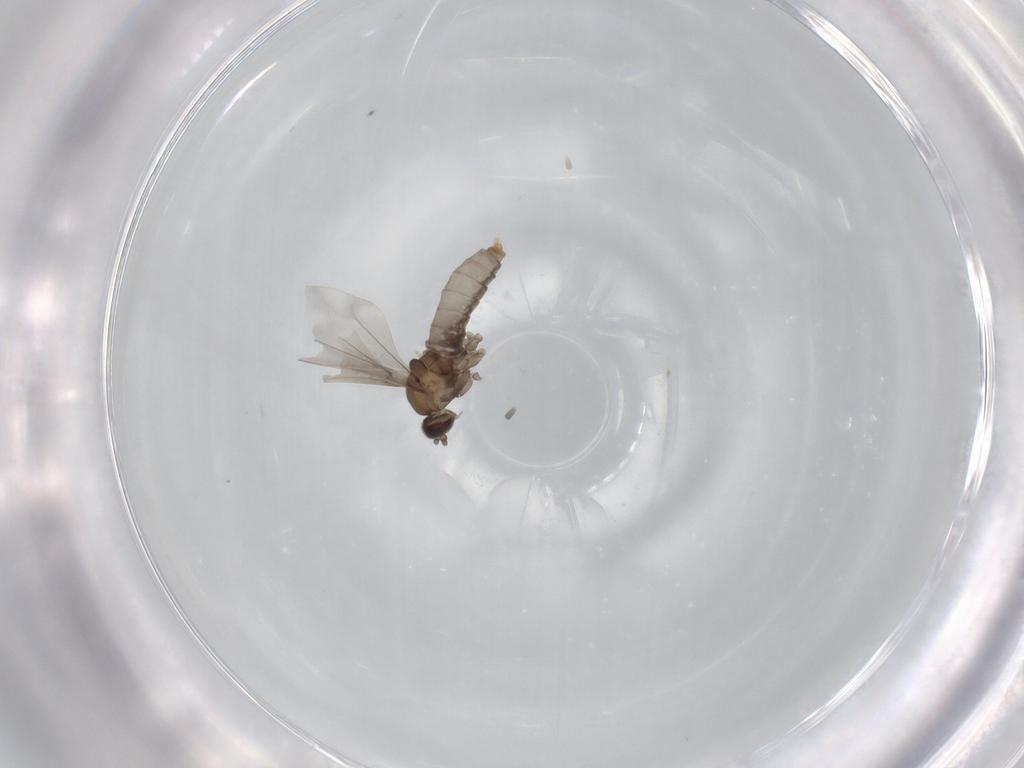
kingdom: Animalia
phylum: Arthropoda
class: Insecta
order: Diptera
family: Cecidomyiidae
